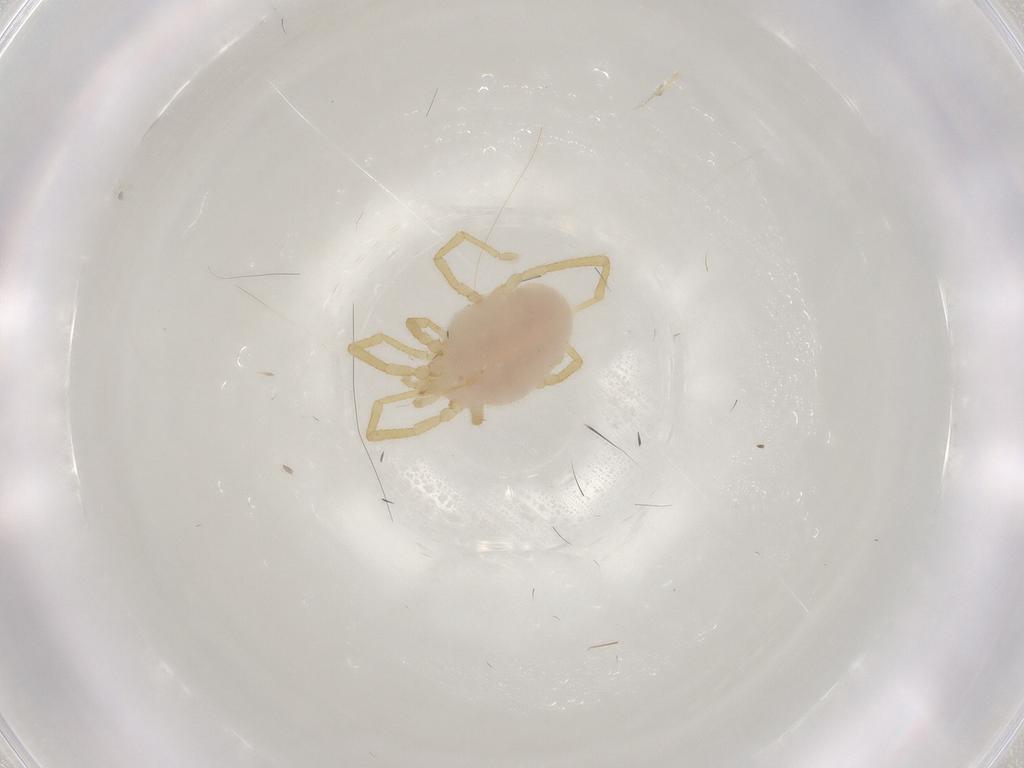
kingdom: Animalia
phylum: Arthropoda
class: Arachnida
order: Trombidiformes
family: Erythraeidae
